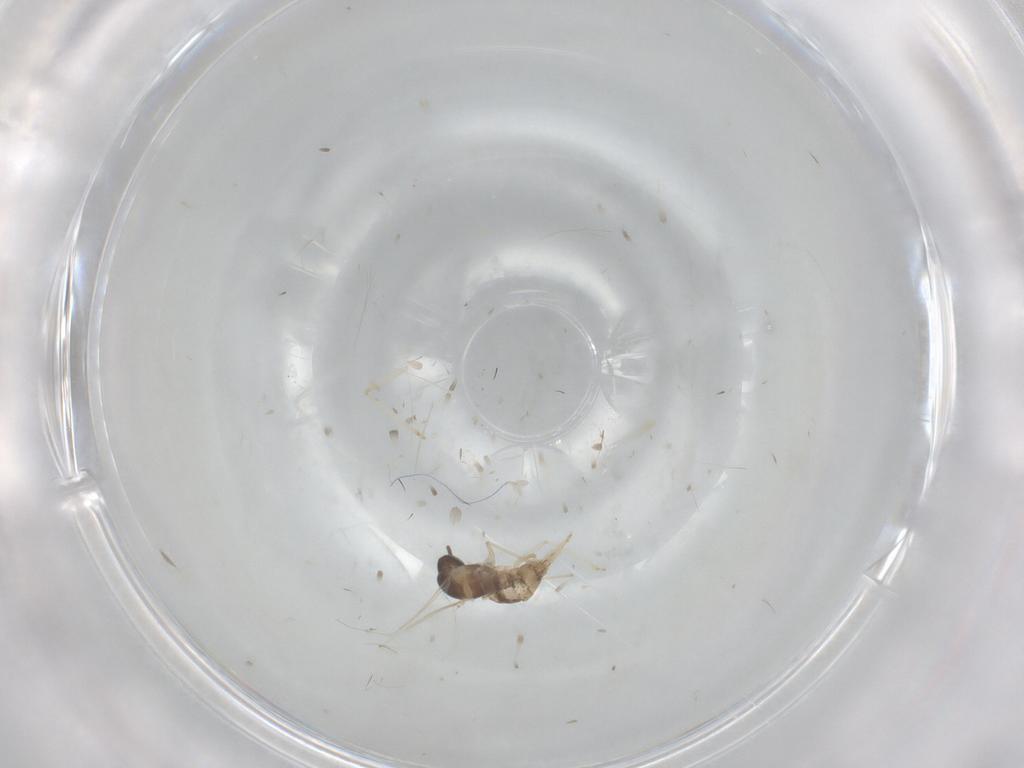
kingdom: Animalia
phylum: Arthropoda
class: Insecta
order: Diptera
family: Cecidomyiidae
